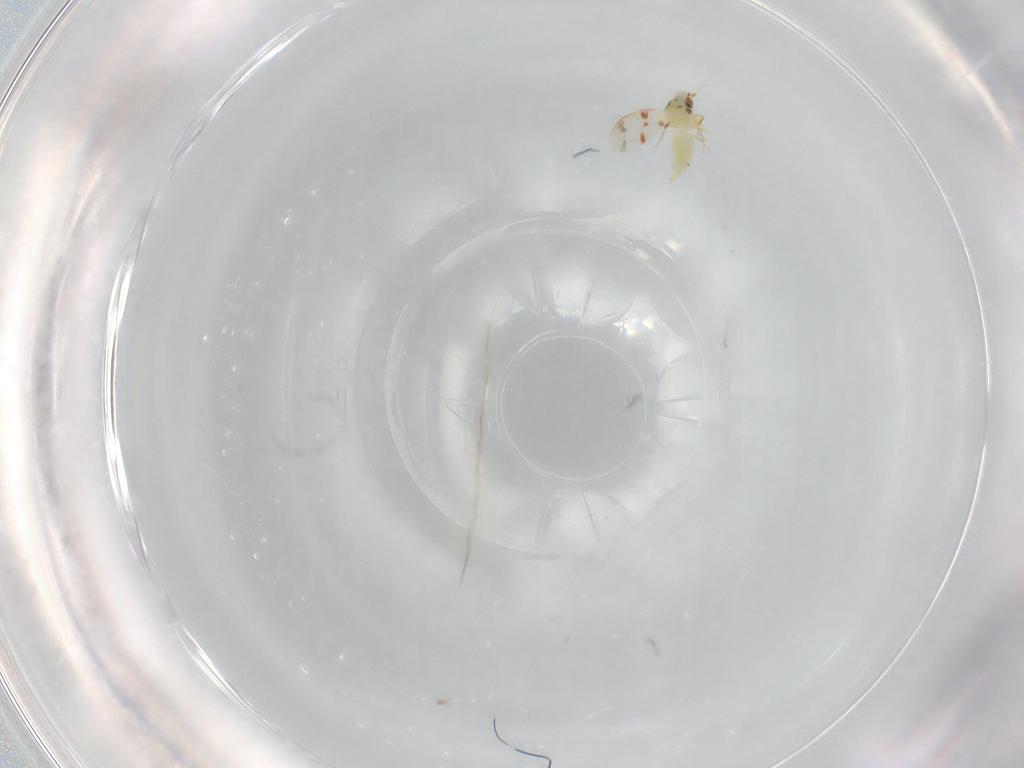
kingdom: Animalia
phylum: Arthropoda
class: Insecta
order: Hemiptera
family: Aleyrodidae
